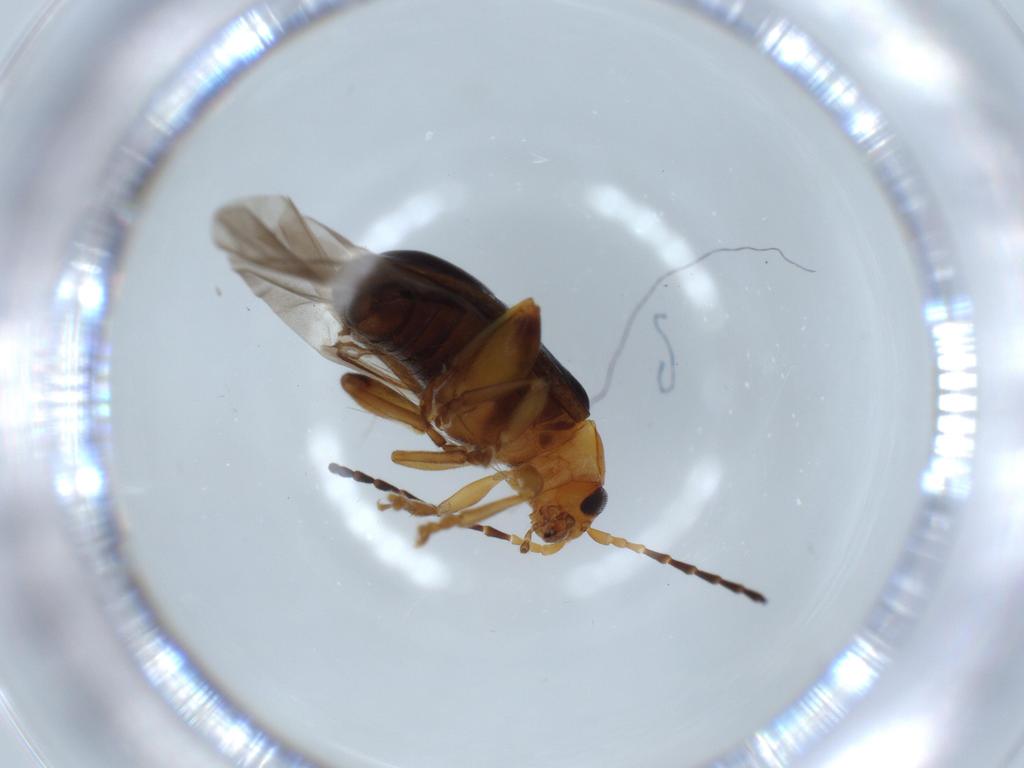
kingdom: Animalia
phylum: Arthropoda
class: Insecta
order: Coleoptera
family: Chrysomelidae
